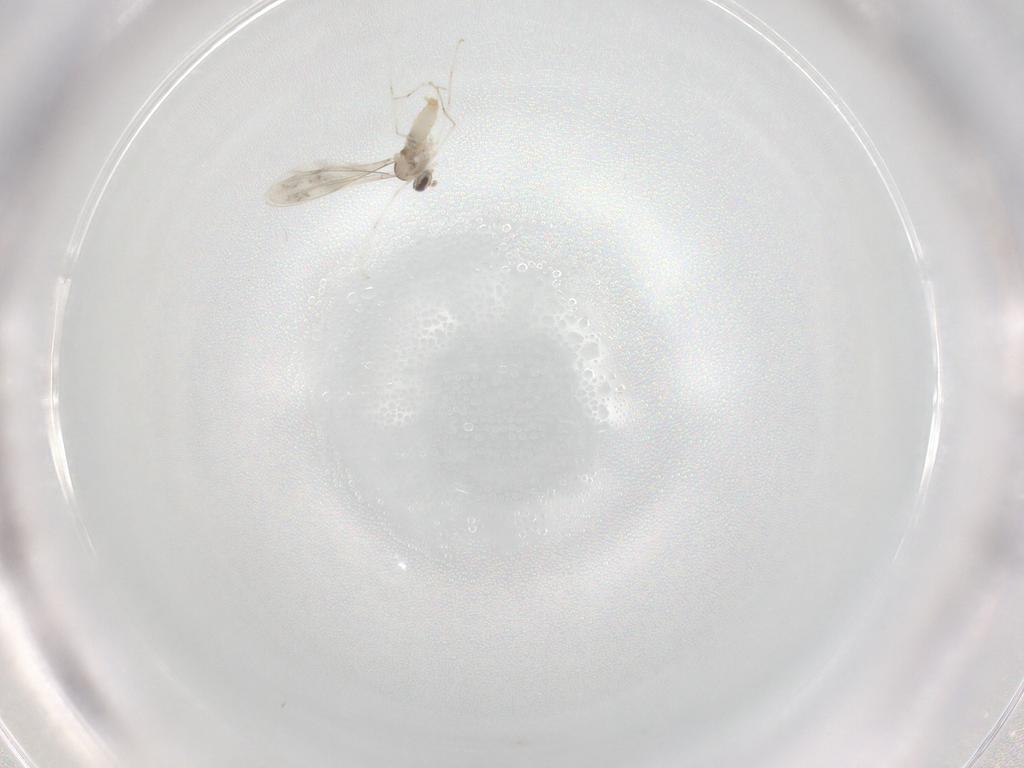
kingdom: Animalia
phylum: Arthropoda
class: Insecta
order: Diptera
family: Cecidomyiidae
